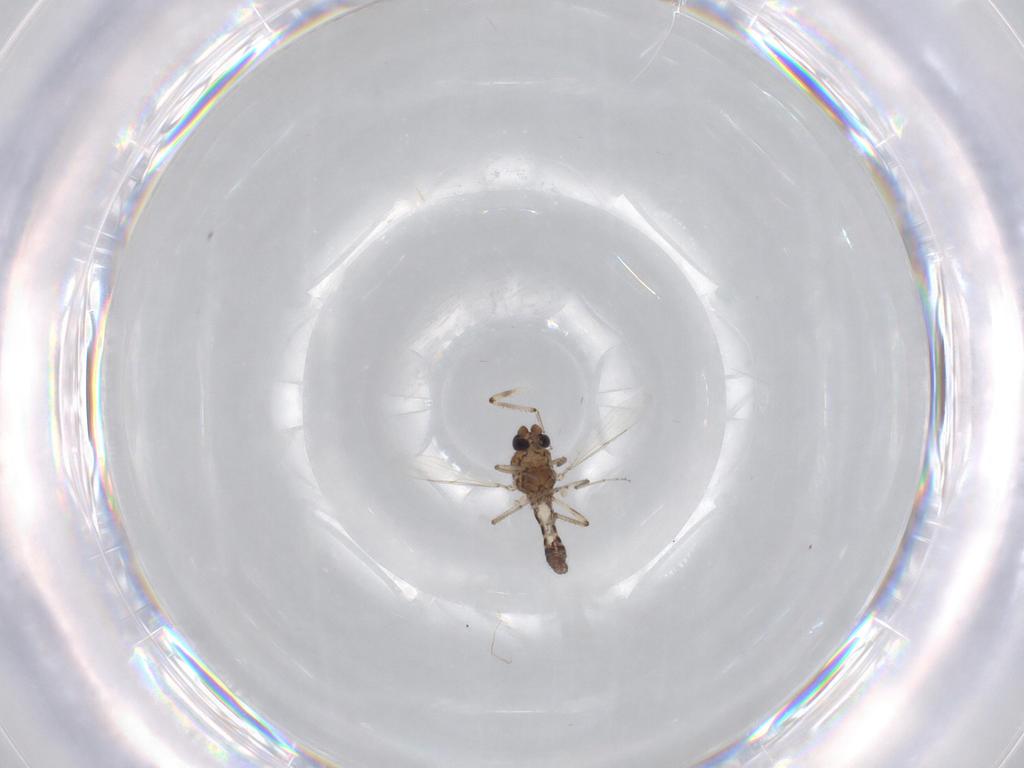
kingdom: Animalia
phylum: Arthropoda
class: Insecta
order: Diptera
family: Ceratopogonidae
